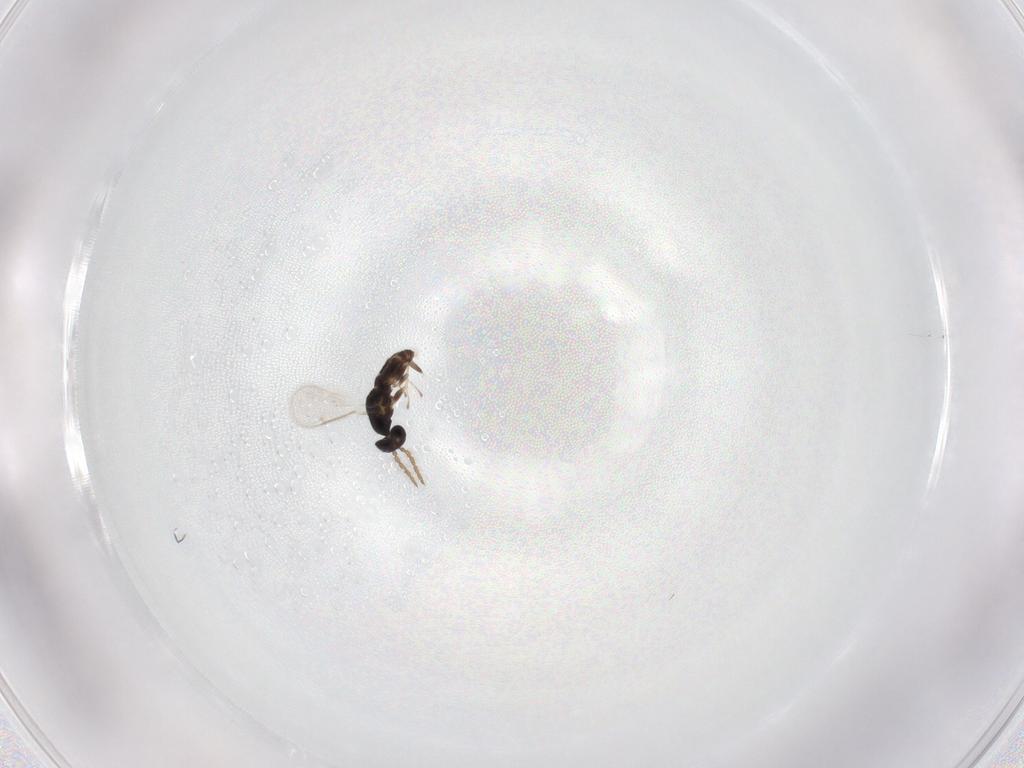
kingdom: Animalia
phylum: Arthropoda
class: Insecta
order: Hymenoptera
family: Eulophidae
